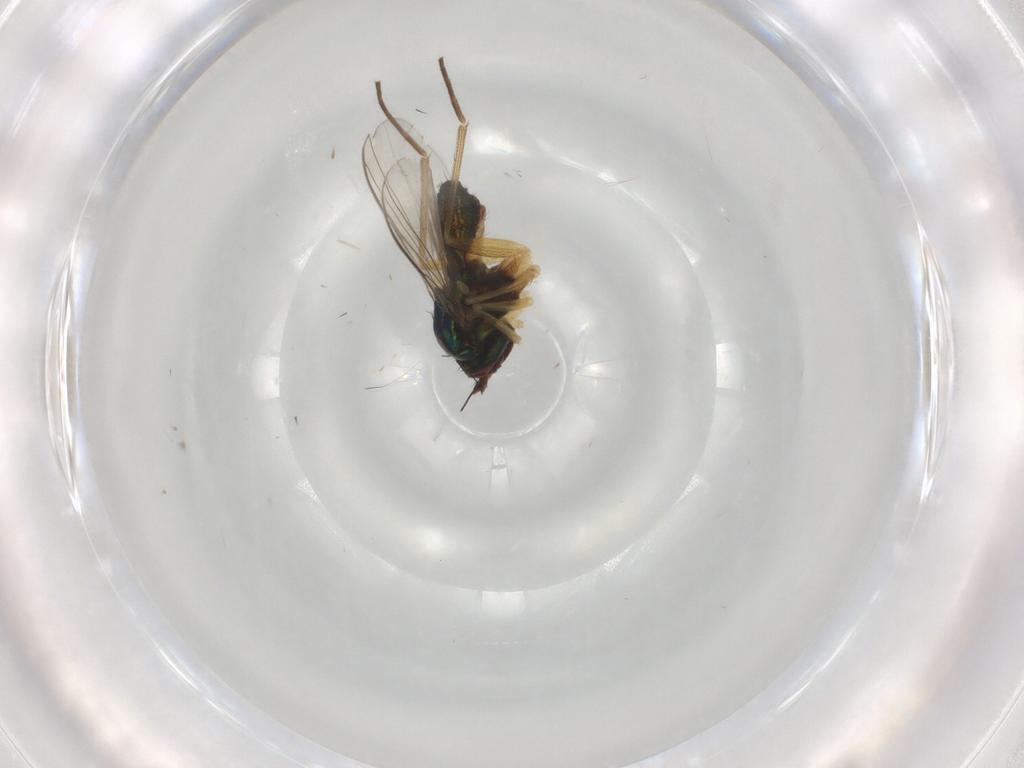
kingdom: Animalia
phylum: Arthropoda
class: Insecta
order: Diptera
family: Dolichopodidae
